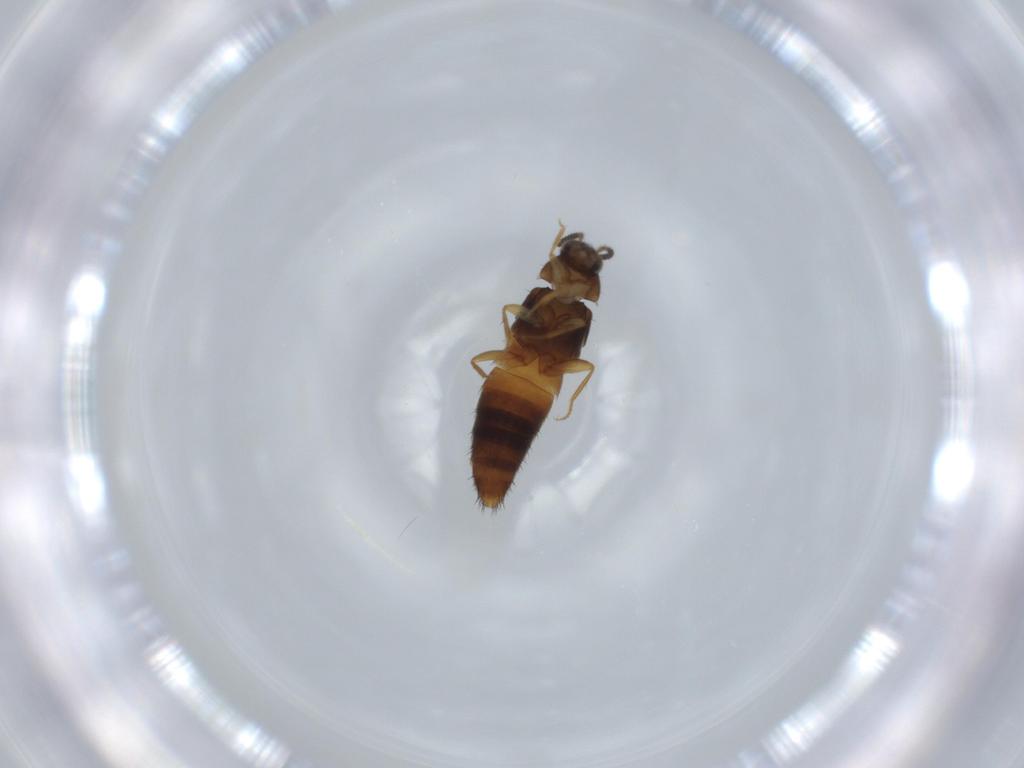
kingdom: Animalia
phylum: Arthropoda
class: Insecta
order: Coleoptera
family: Staphylinidae
